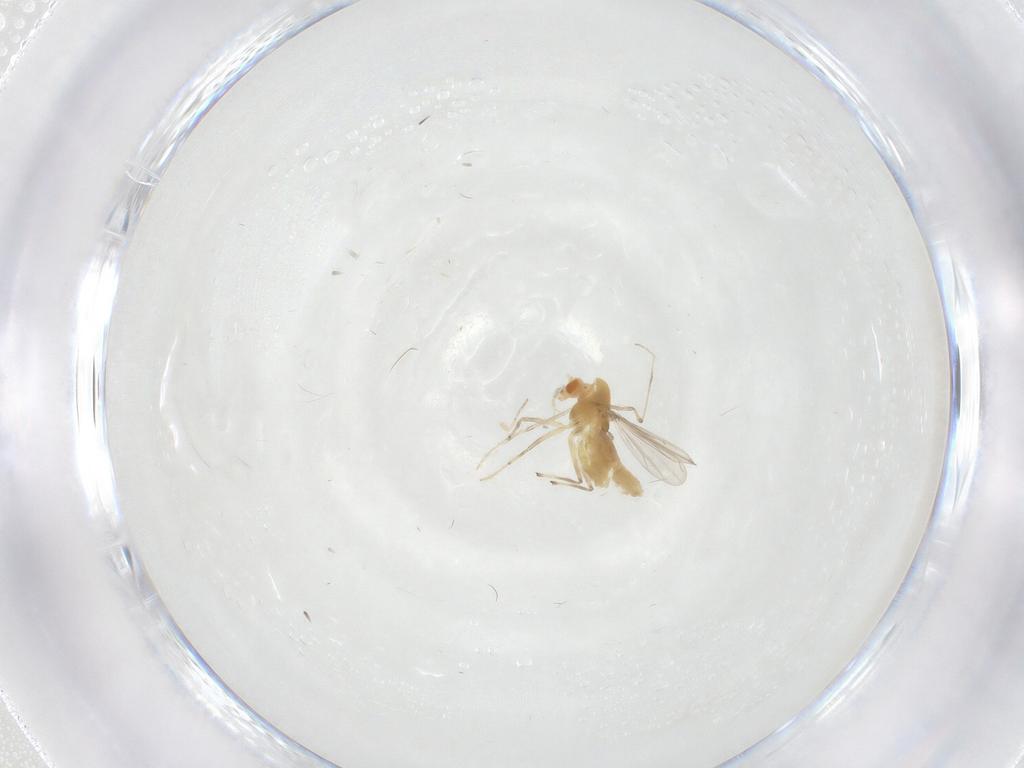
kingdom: Animalia
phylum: Arthropoda
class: Insecta
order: Diptera
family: Chironomidae
